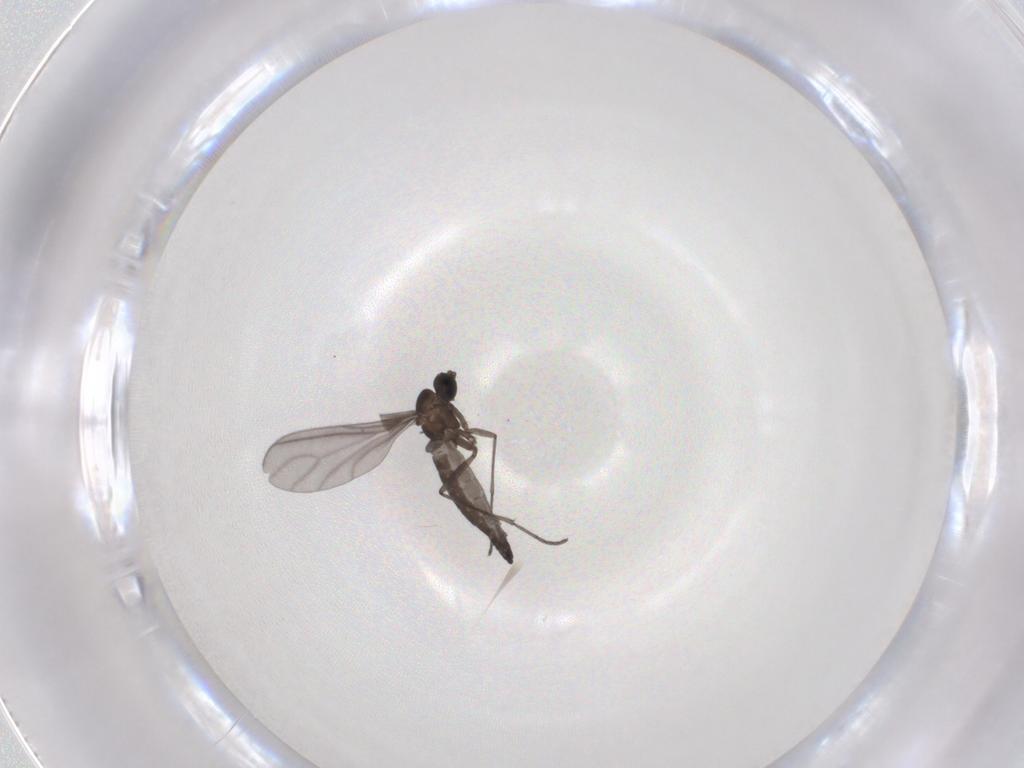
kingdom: Animalia
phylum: Arthropoda
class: Insecta
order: Diptera
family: Sciaridae
